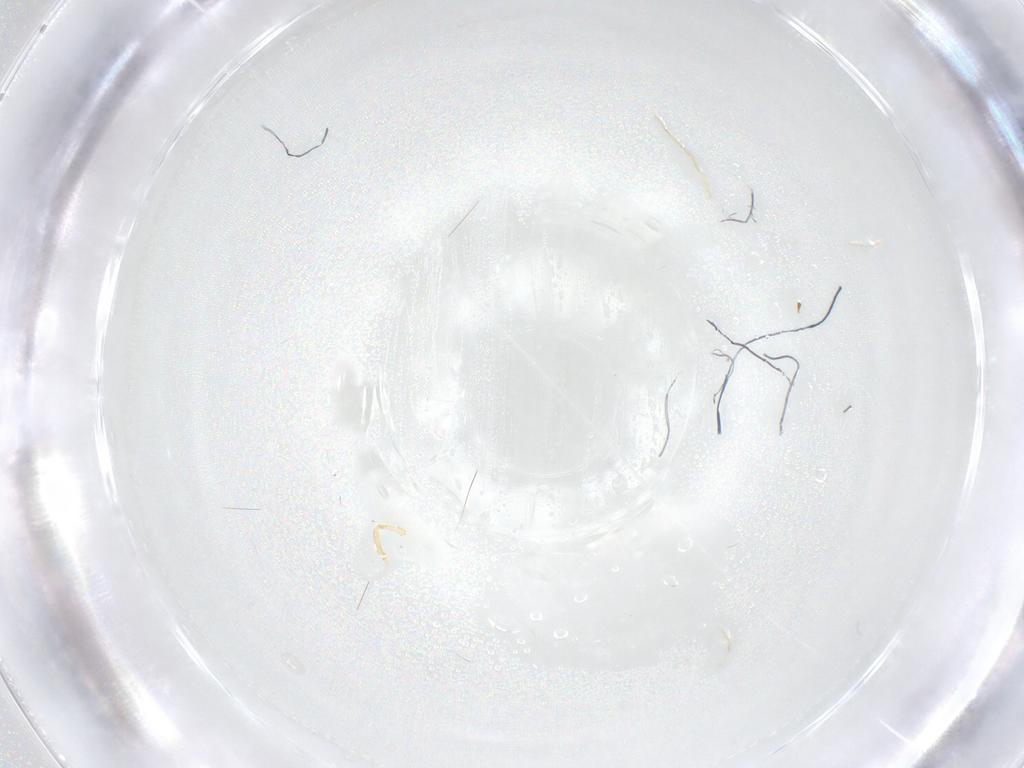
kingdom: Animalia
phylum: Arthropoda
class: Insecta
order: Diptera
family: Cecidomyiidae
